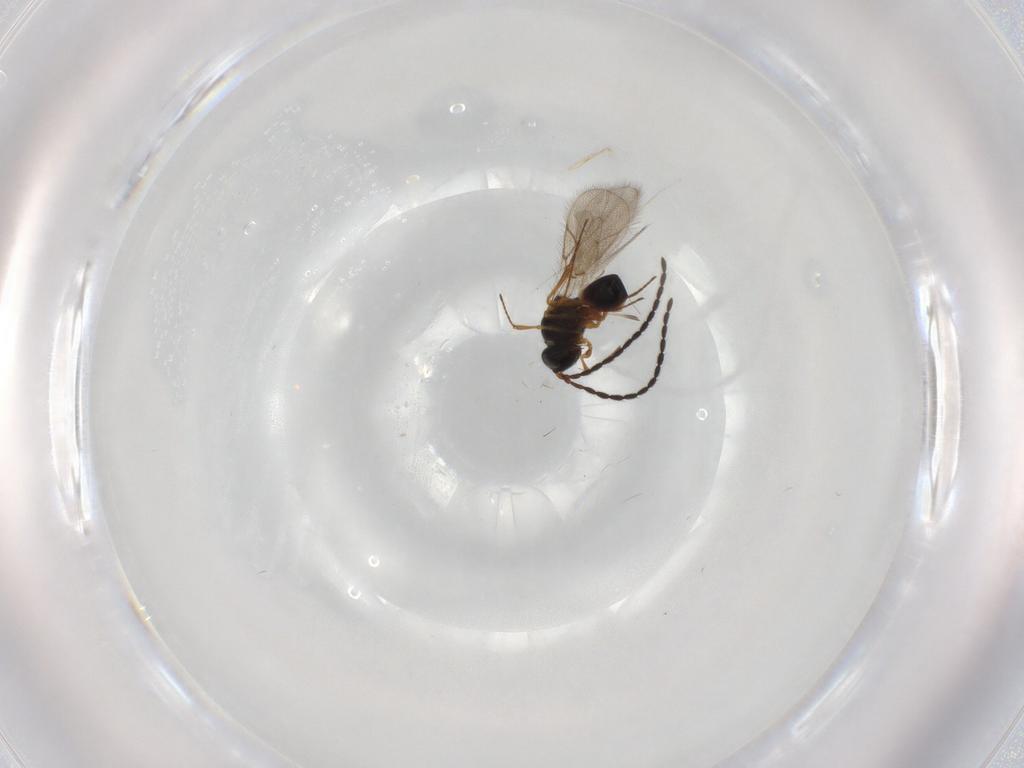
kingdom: Animalia
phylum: Arthropoda
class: Insecta
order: Hymenoptera
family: Figitidae
